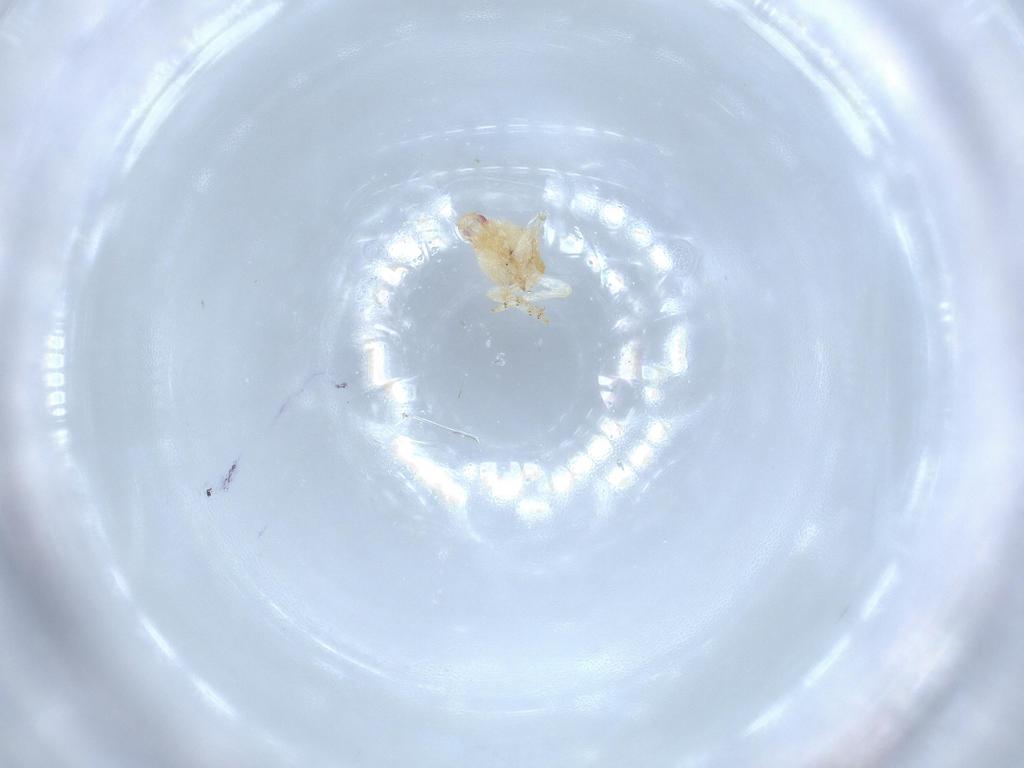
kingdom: Animalia
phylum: Arthropoda
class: Insecta
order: Hemiptera
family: Flatidae
